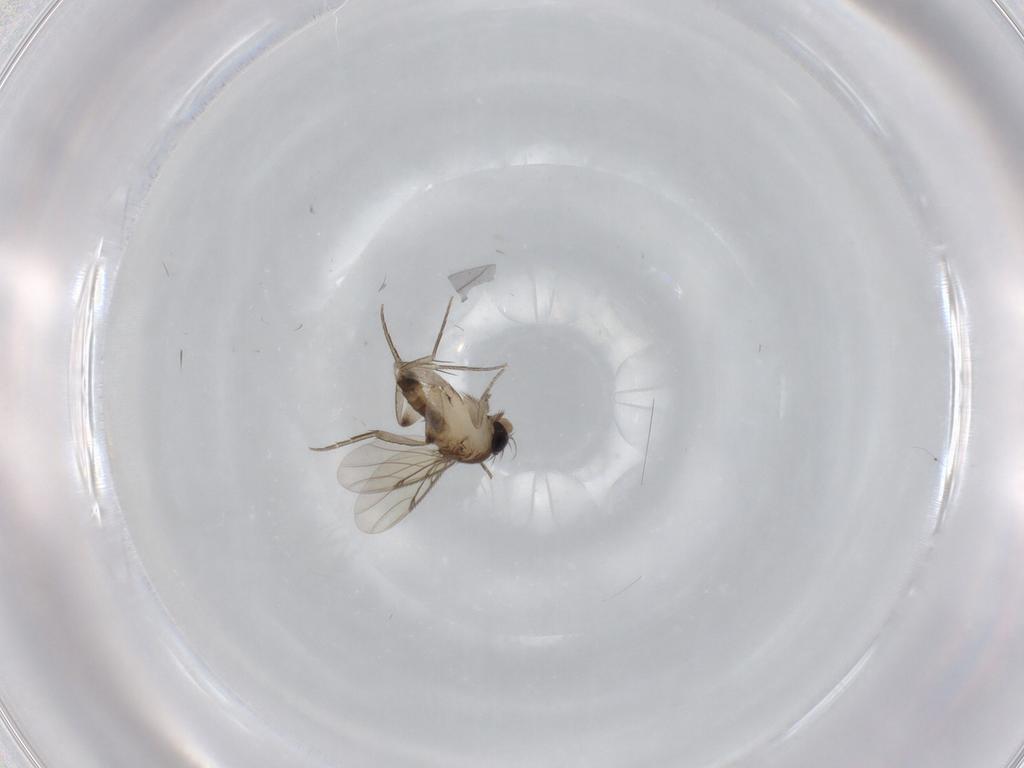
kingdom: Animalia
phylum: Arthropoda
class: Insecta
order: Diptera
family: Phoridae
